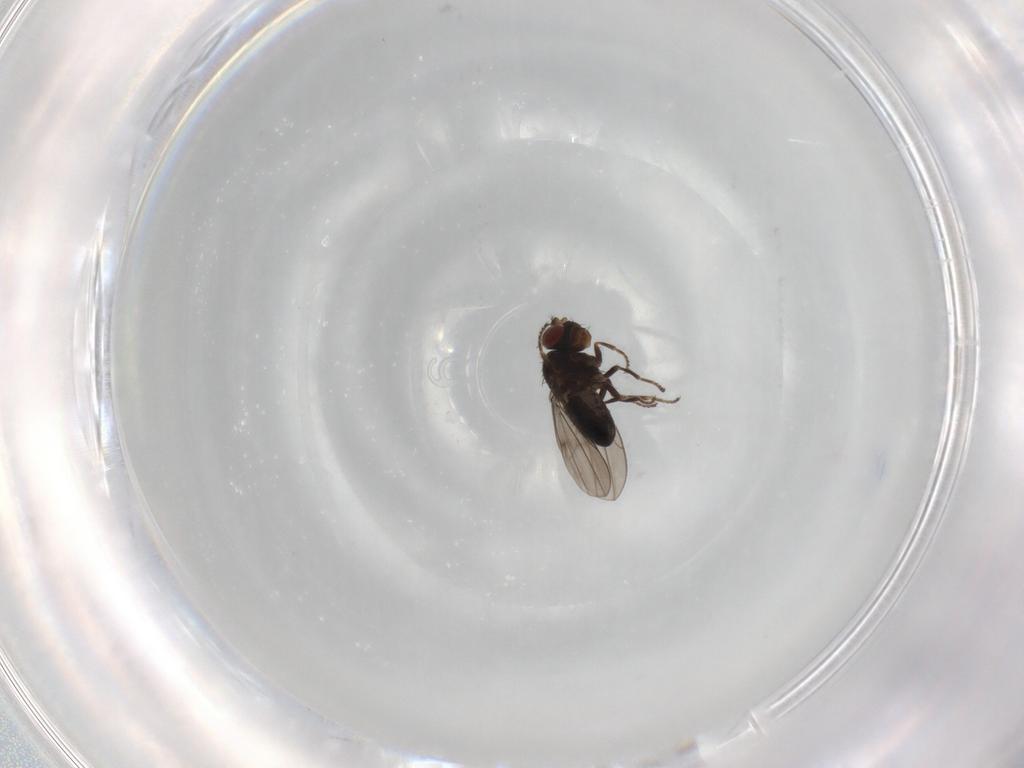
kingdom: Animalia
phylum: Arthropoda
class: Insecta
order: Diptera
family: Ephydridae
